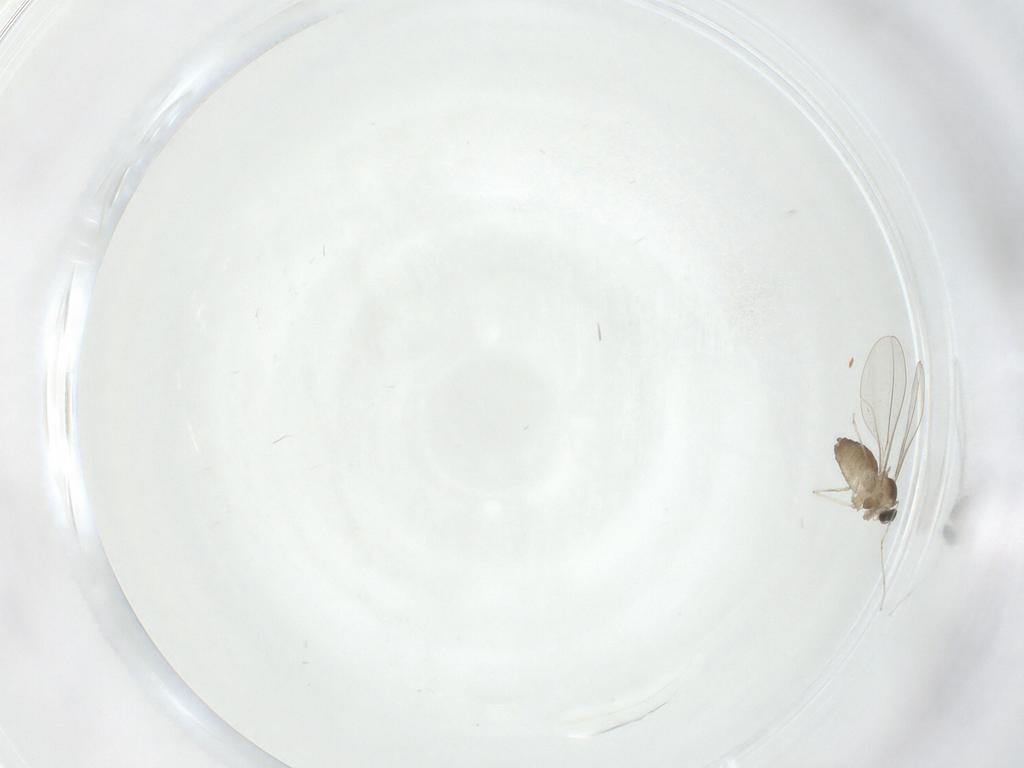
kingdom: Animalia
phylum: Arthropoda
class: Insecta
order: Diptera
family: Cecidomyiidae
